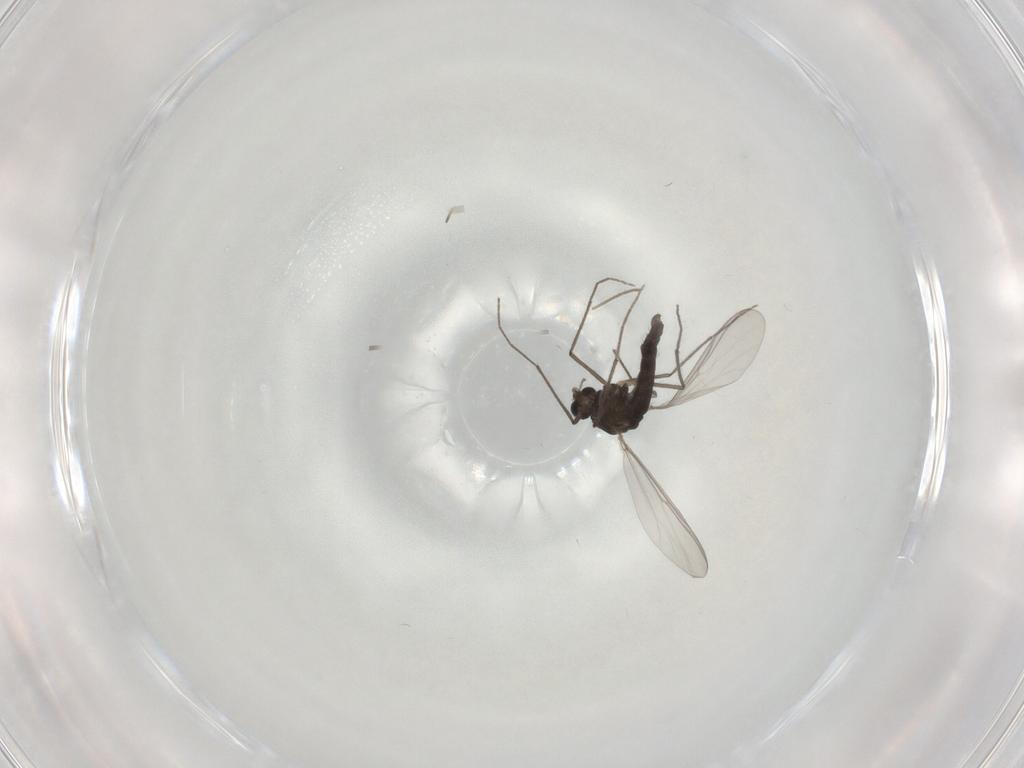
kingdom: Animalia
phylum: Arthropoda
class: Insecta
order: Diptera
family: Chironomidae
